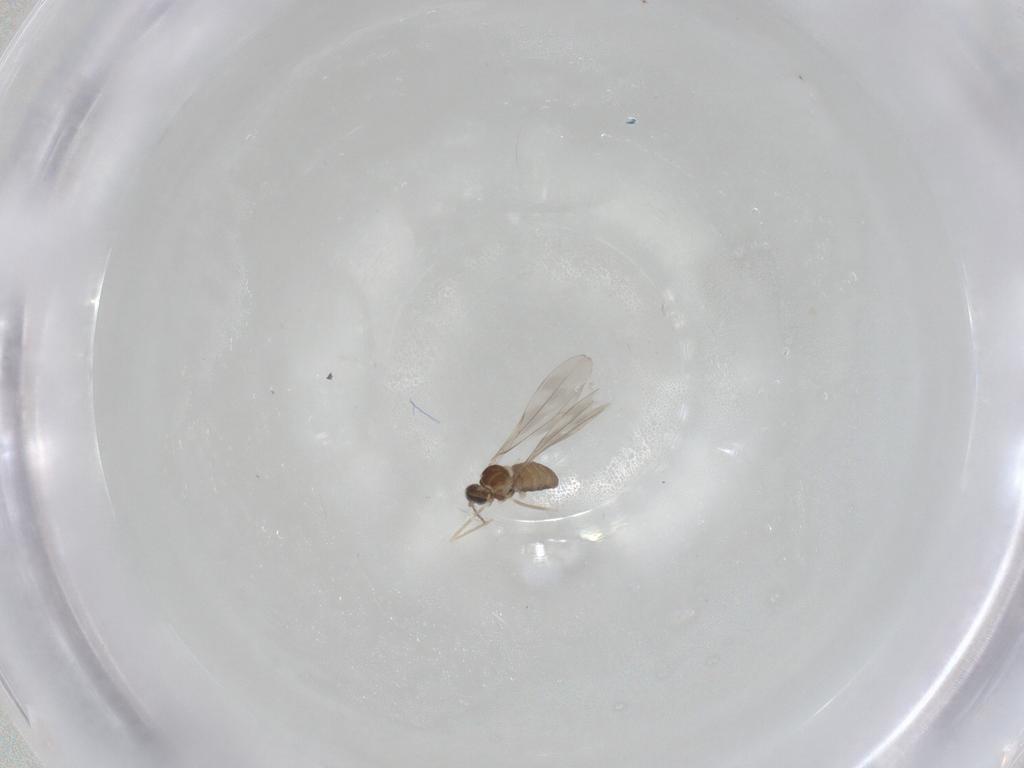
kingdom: Animalia
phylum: Arthropoda
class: Insecta
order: Diptera
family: Cecidomyiidae
